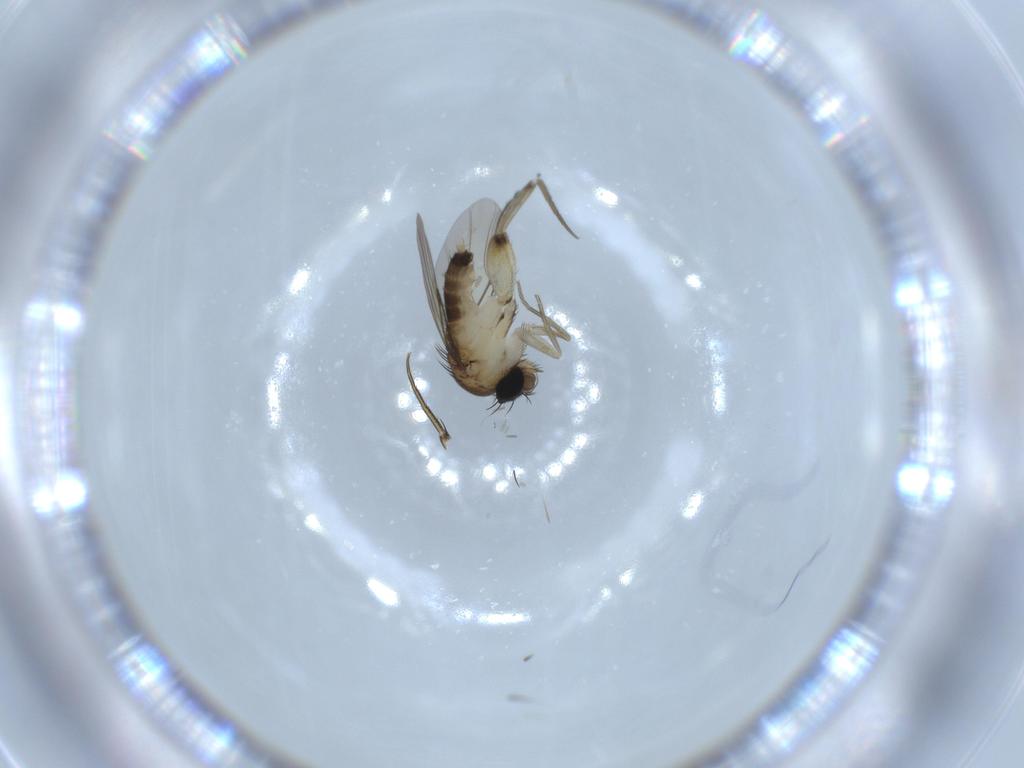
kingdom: Animalia
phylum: Arthropoda
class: Insecta
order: Diptera
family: Phoridae
